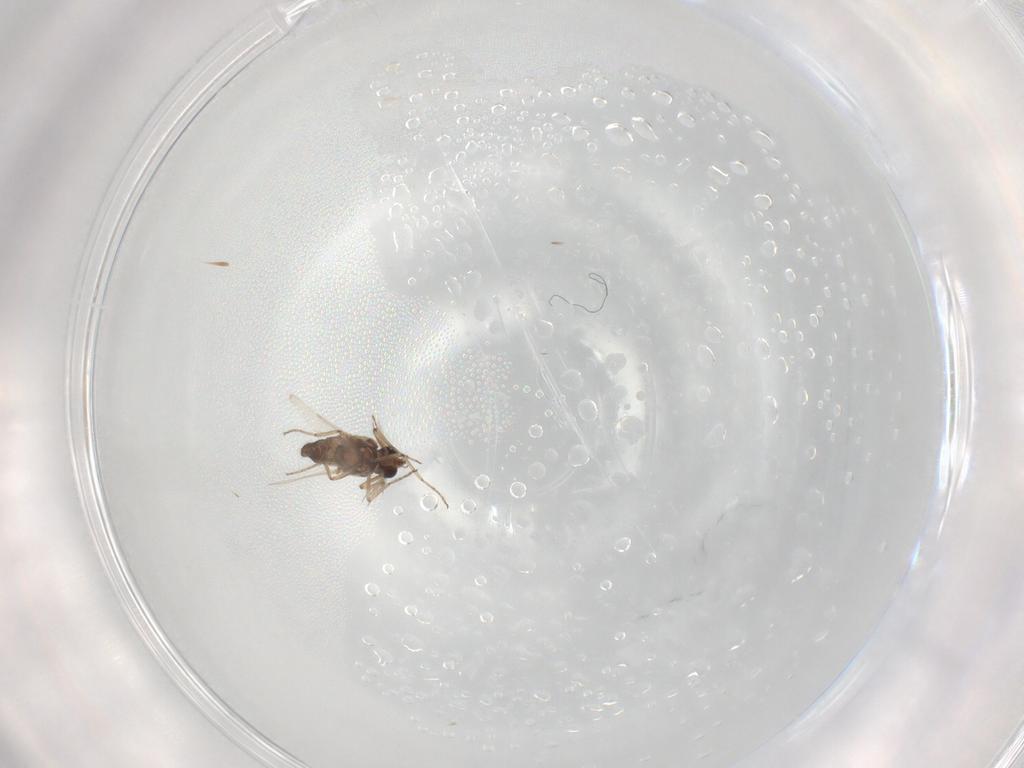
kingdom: Animalia
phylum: Arthropoda
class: Insecta
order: Diptera
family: Ceratopogonidae
